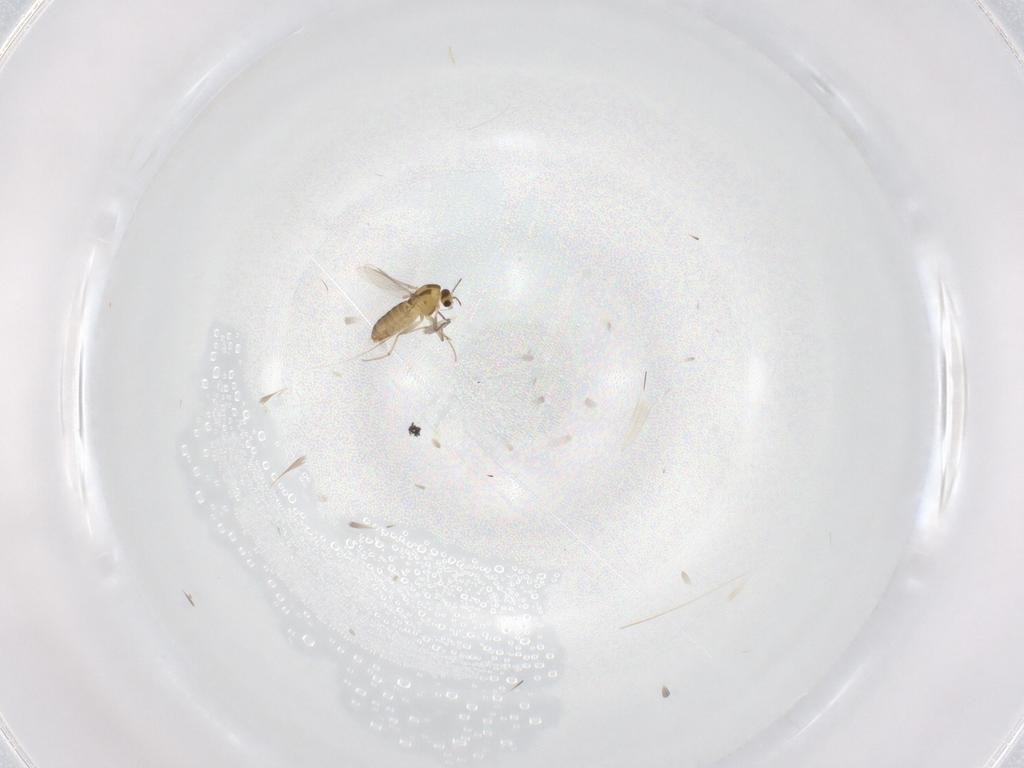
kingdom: Animalia
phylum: Arthropoda
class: Insecta
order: Diptera
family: Chironomidae
